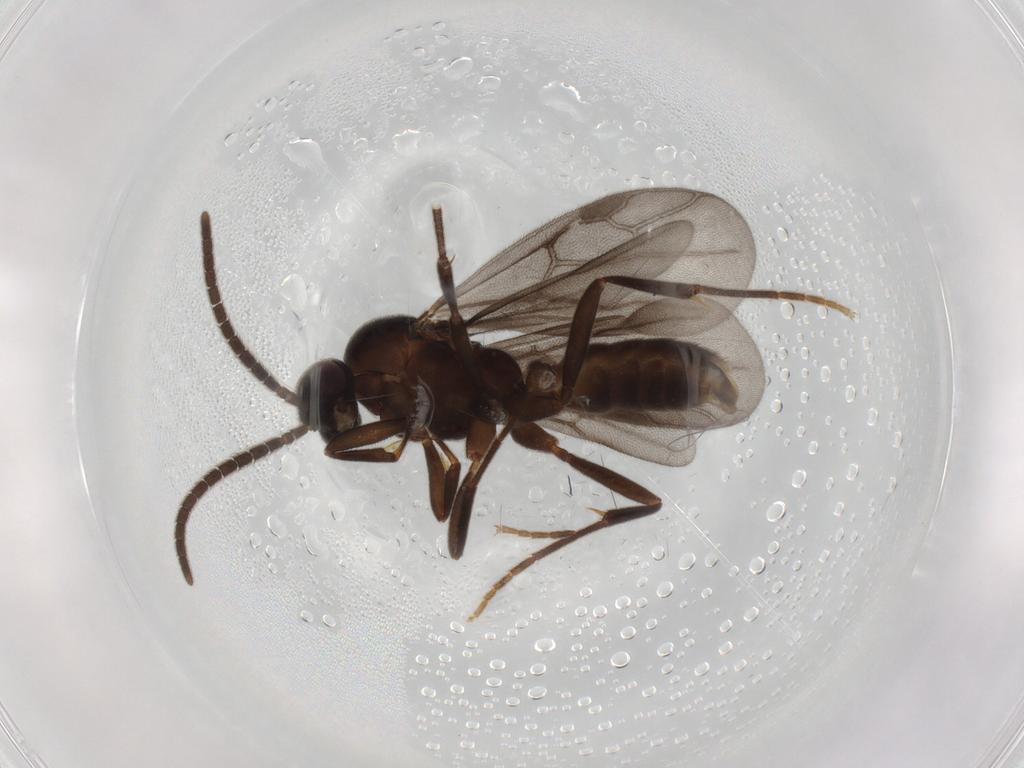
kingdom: Animalia
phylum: Arthropoda
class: Insecta
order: Hymenoptera
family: Formicidae
